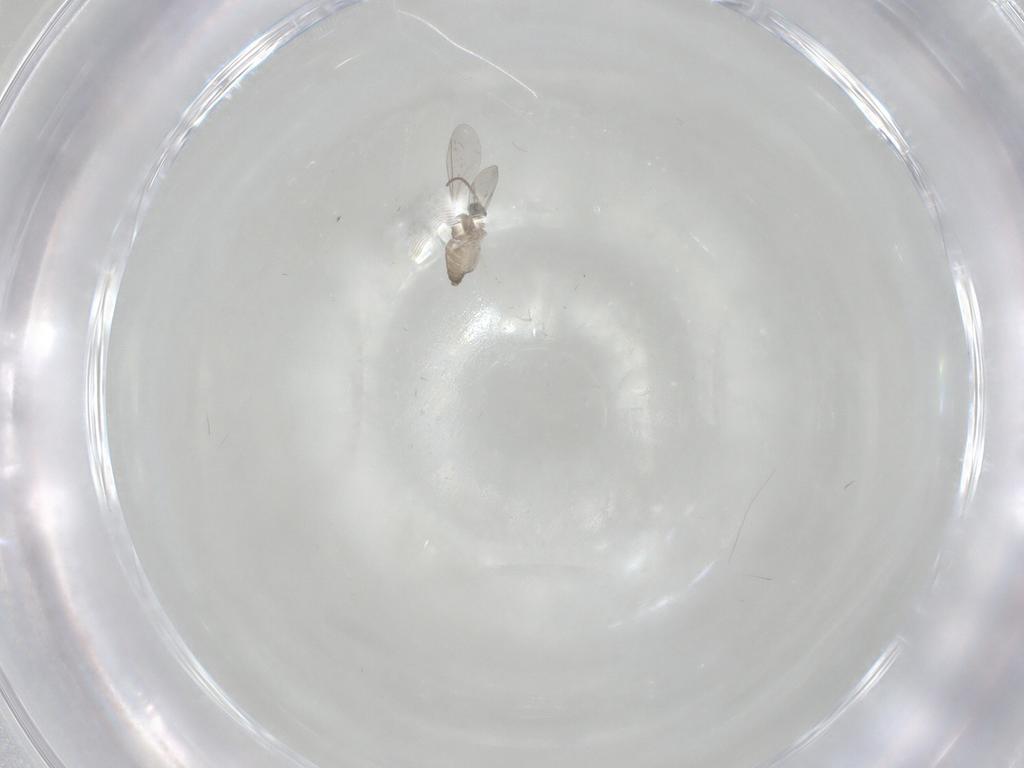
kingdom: Animalia
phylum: Arthropoda
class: Insecta
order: Diptera
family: Cecidomyiidae
